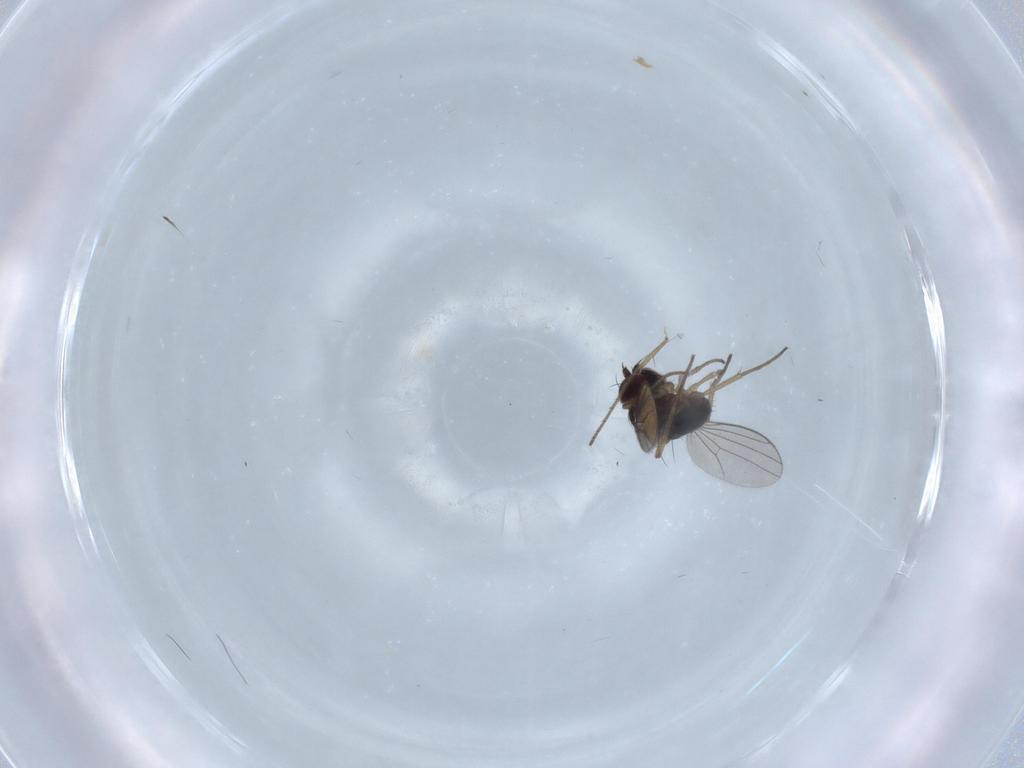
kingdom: Animalia
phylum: Arthropoda
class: Insecta
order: Diptera
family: Dolichopodidae
